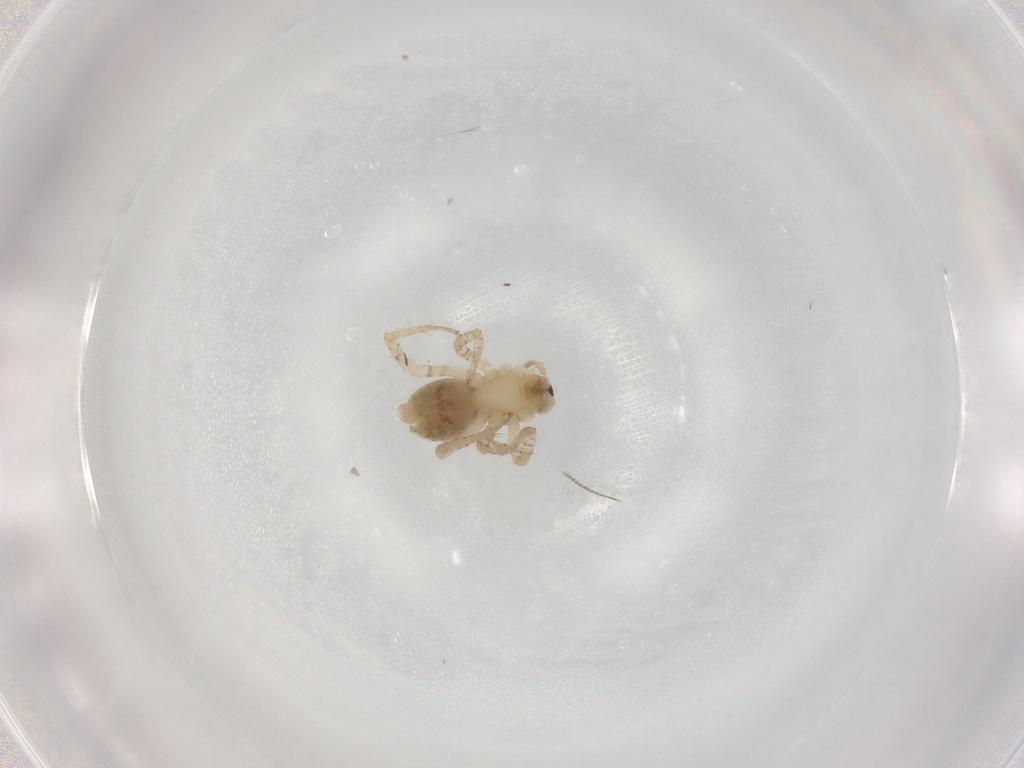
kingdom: Animalia
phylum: Arthropoda
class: Arachnida
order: Araneae
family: Anyphaenidae
